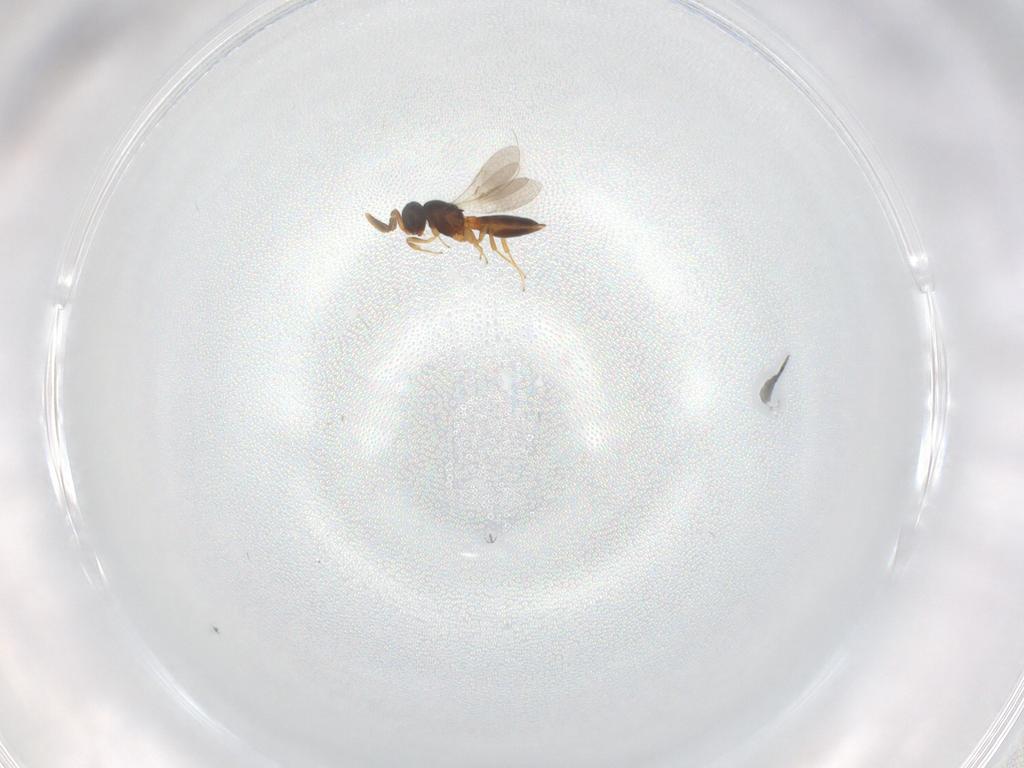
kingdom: Animalia
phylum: Arthropoda
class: Insecta
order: Hymenoptera
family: Scelionidae
